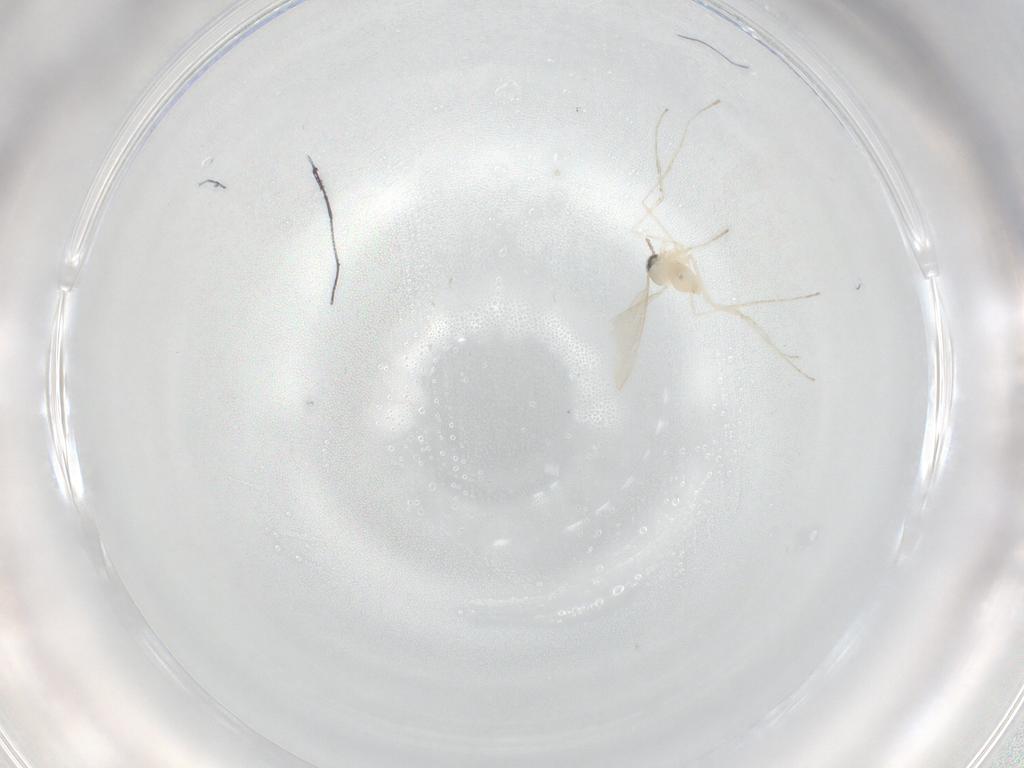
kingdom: Animalia
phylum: Arthropoda
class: Insecta
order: Diptera
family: Cecidomyiidae
